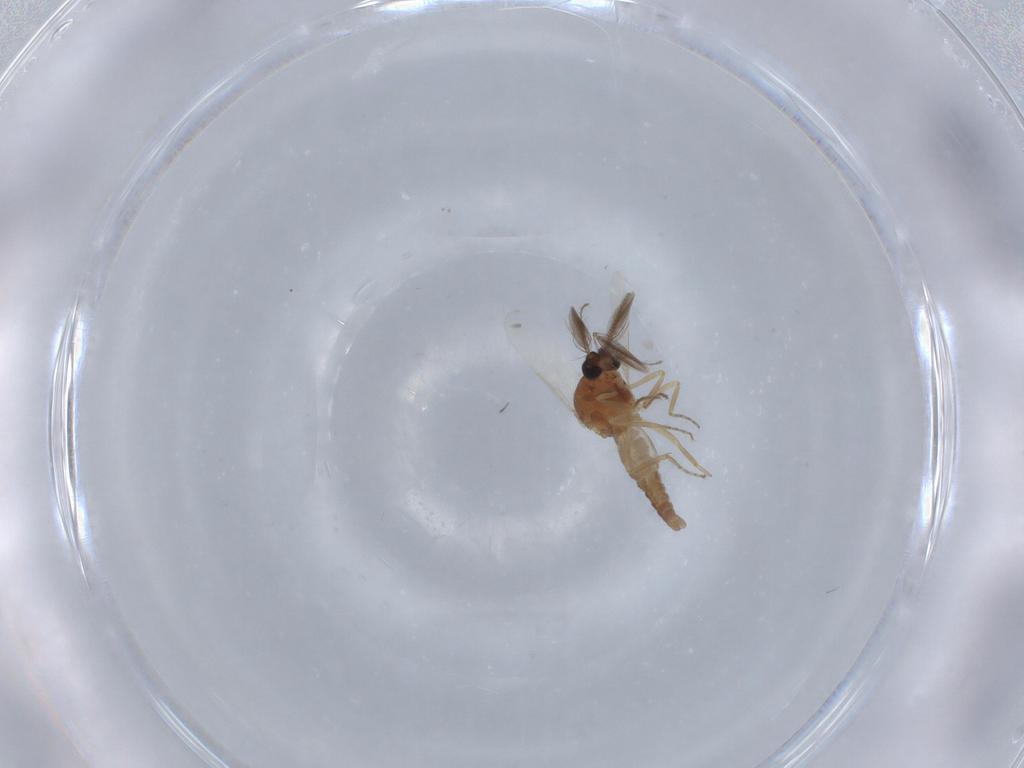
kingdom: Animalia
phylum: Arthropoda
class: Insecta
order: Diptera
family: Ceratopogonidae
